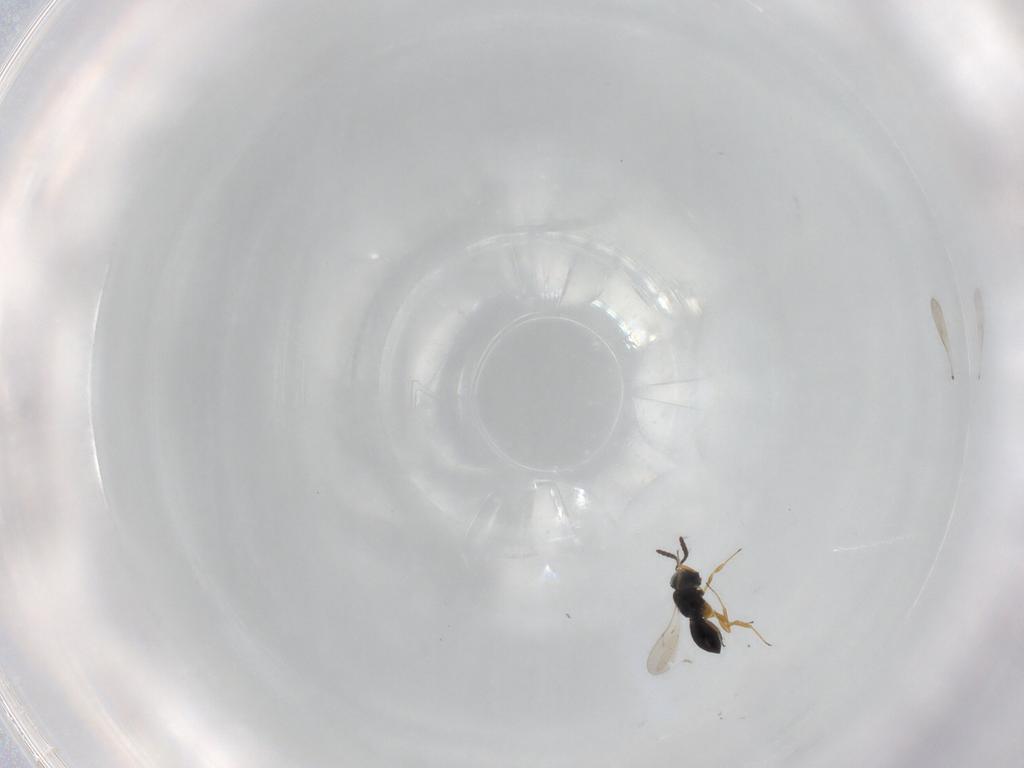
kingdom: Animalia
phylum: Arthropoda
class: Insecta
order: Hymenoptera
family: Scelionidae
